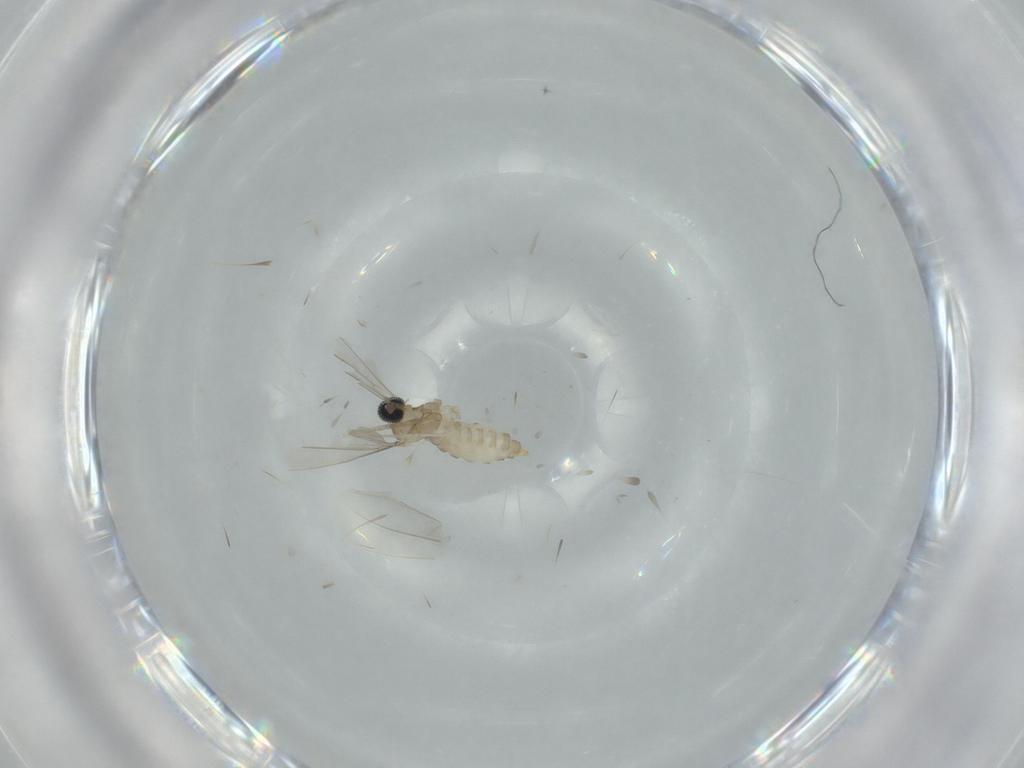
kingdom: Animalia
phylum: Arthropoda
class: Insecta
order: Diptera
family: Cecidomyiidae
